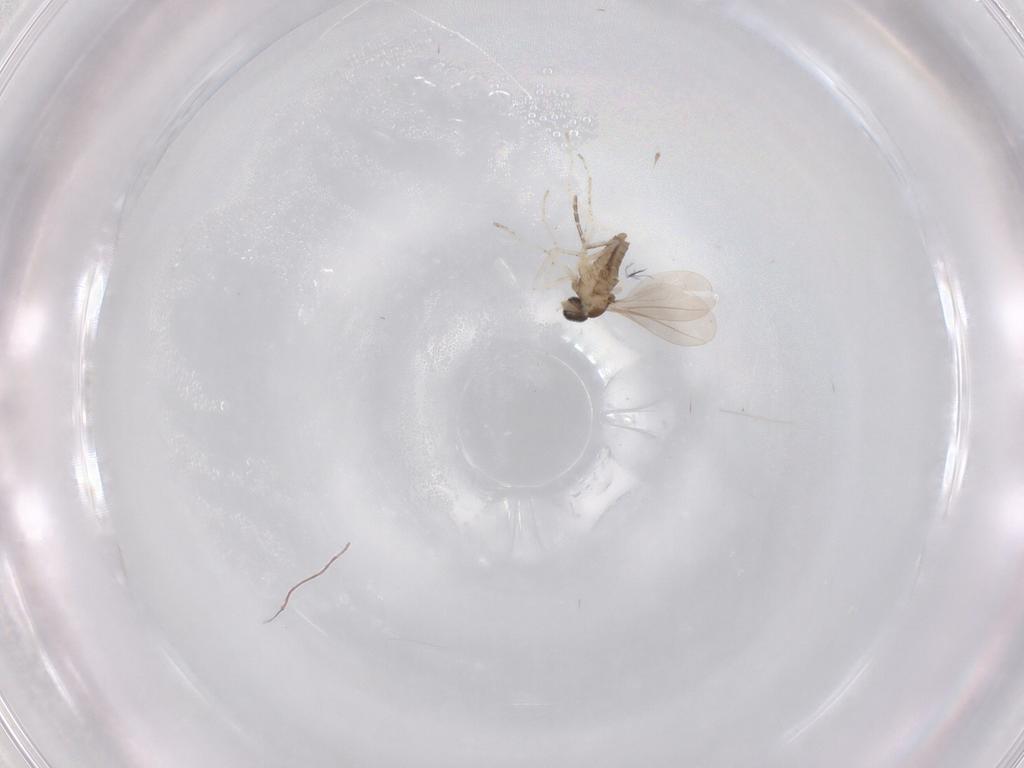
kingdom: Animalia
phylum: Arthropoda
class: Insecta
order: Diptera
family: Cecidomyiidae
